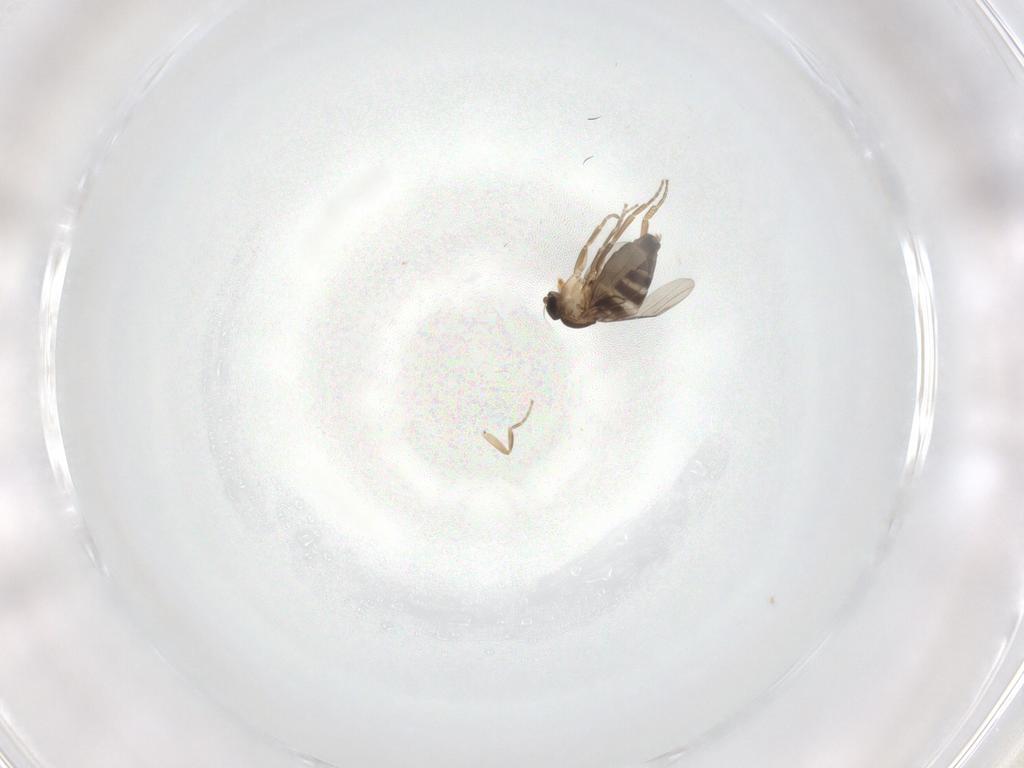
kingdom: Animalia
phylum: Arthropoda
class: Insecta
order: Diptera
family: Phoridae
